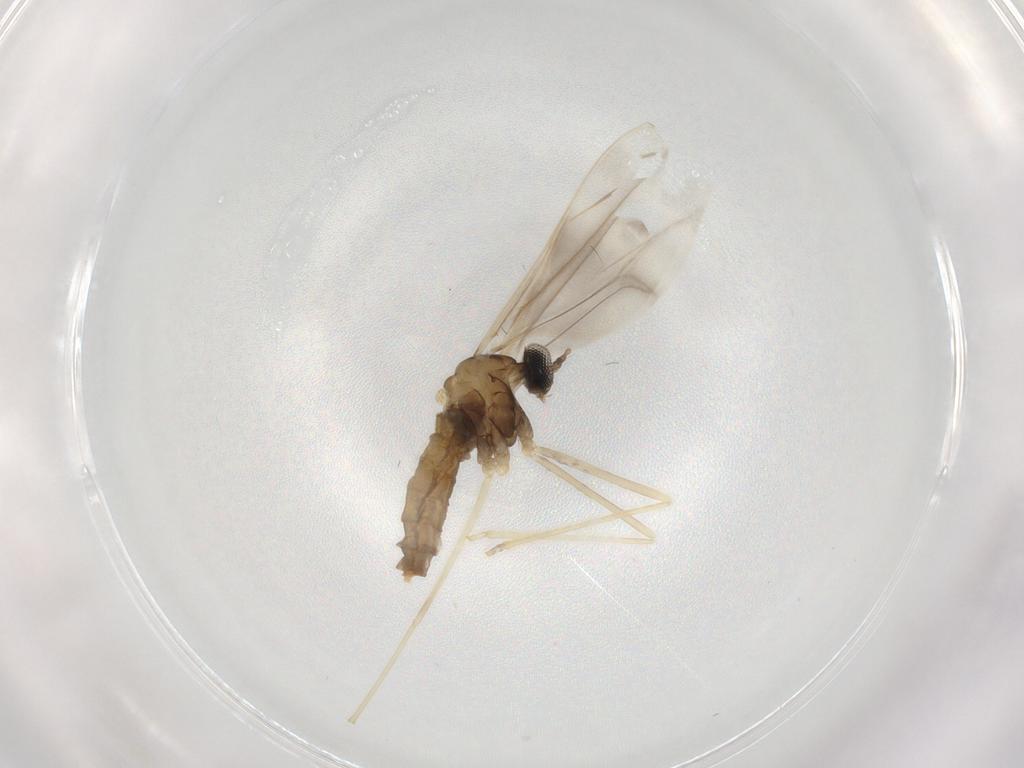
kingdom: Animalia
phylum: Arthropoda
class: Insecta
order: Diptera
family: Cecidomyiidae
